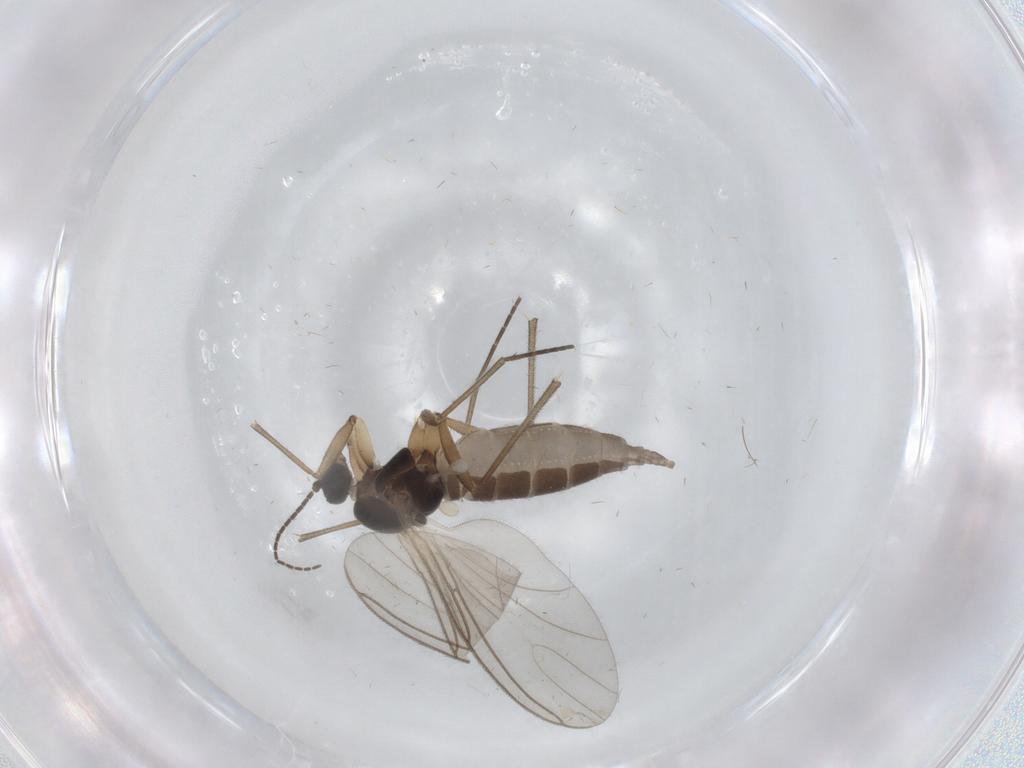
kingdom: Animalia
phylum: Arthropoda
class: Insecta
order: Diptera
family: Sciaridae
